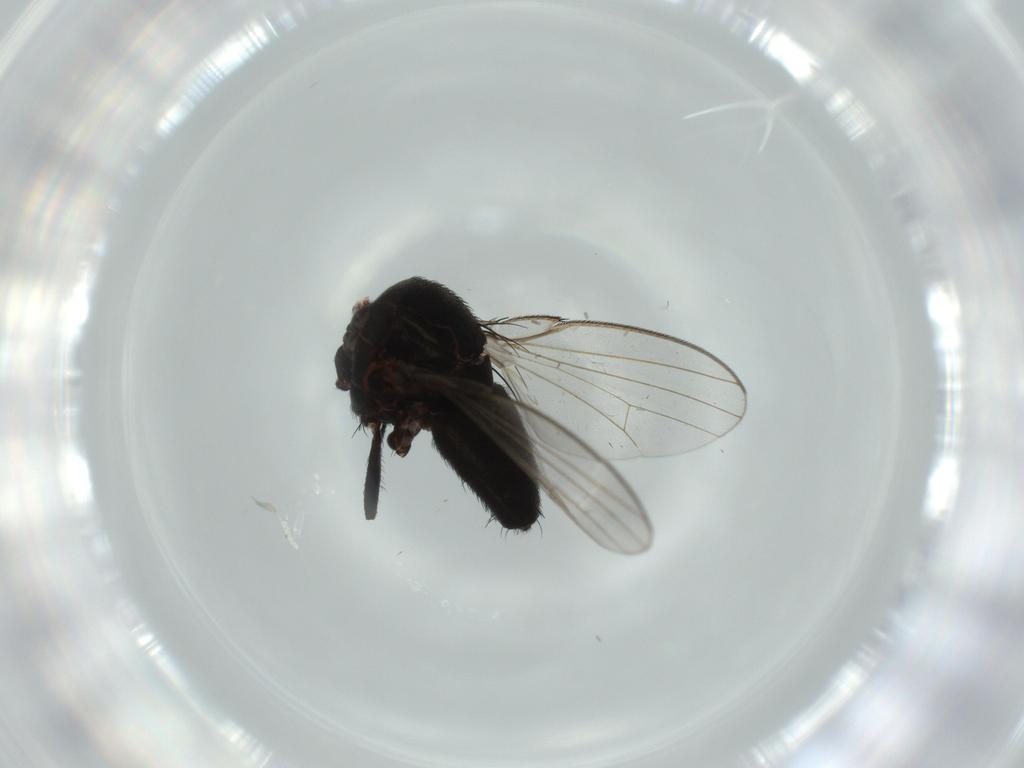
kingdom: Animalia
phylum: Arthropoda
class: Insecta
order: Diptera
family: Milichiidae
